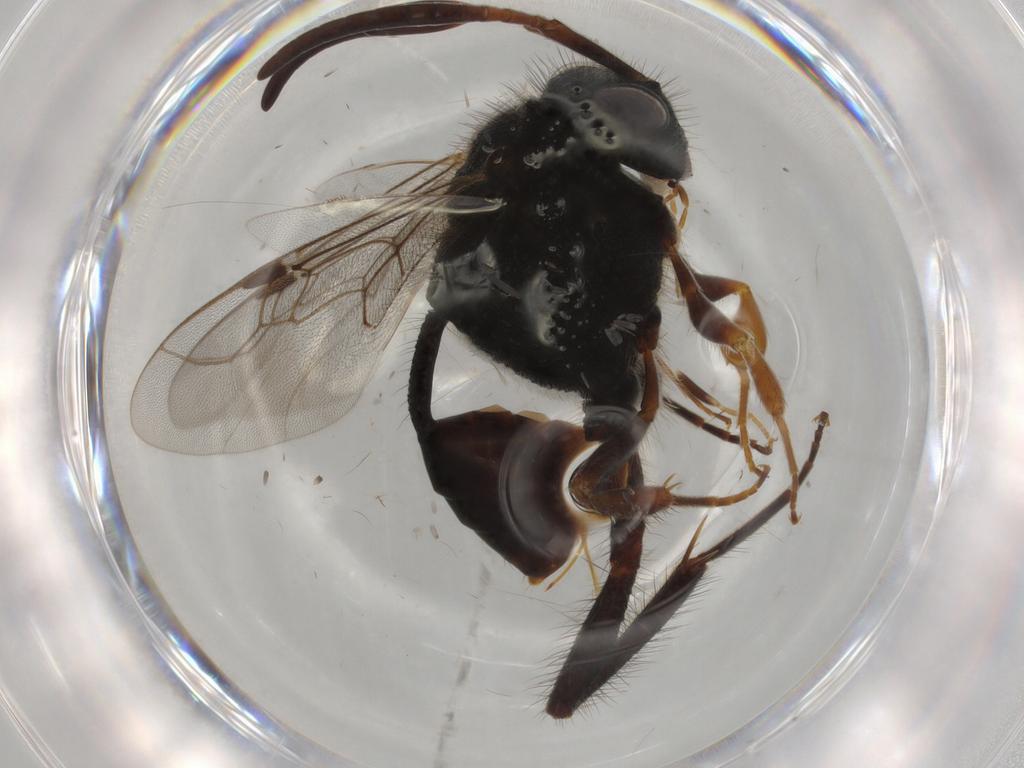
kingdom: Animalia
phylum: Arthropoda
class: Insecta
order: Hymenoptera
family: Evaniidae
